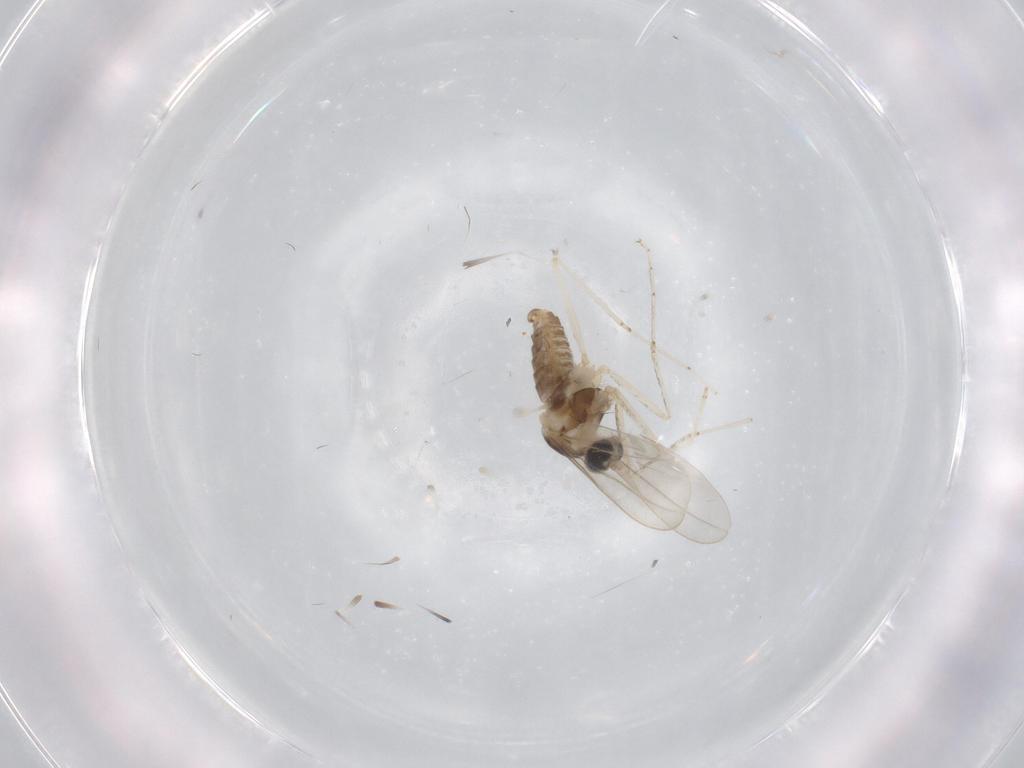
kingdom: Animalia
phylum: Arthropoda
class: Insecta
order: Diptera
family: Cecidomyiidae
